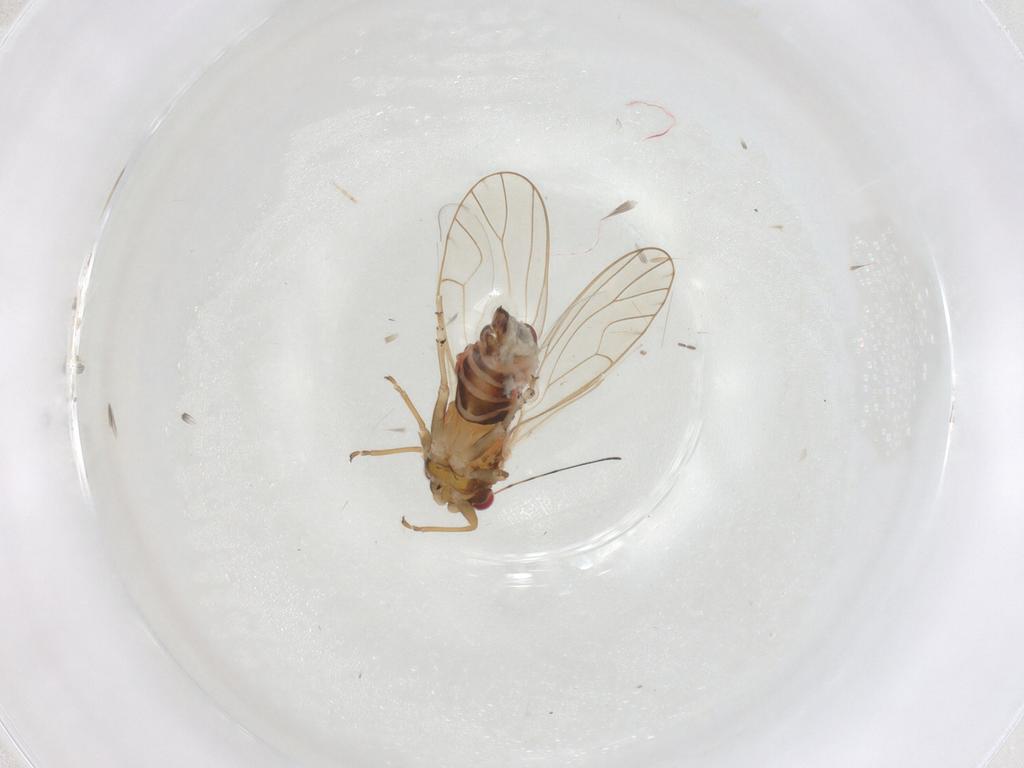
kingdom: Animalia
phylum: Arthropoda
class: Insecta
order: Hemiptera
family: Psyllidae
